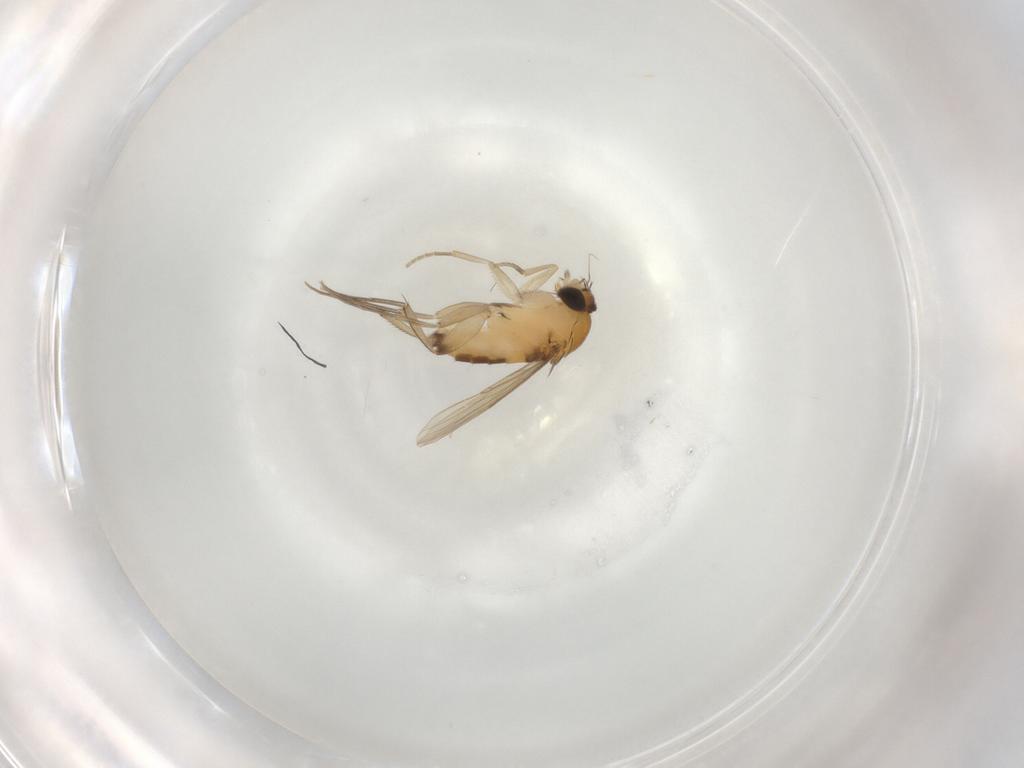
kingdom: Animalia
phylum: Arthropoda
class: Insecta
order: Diptera
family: Phoridae
